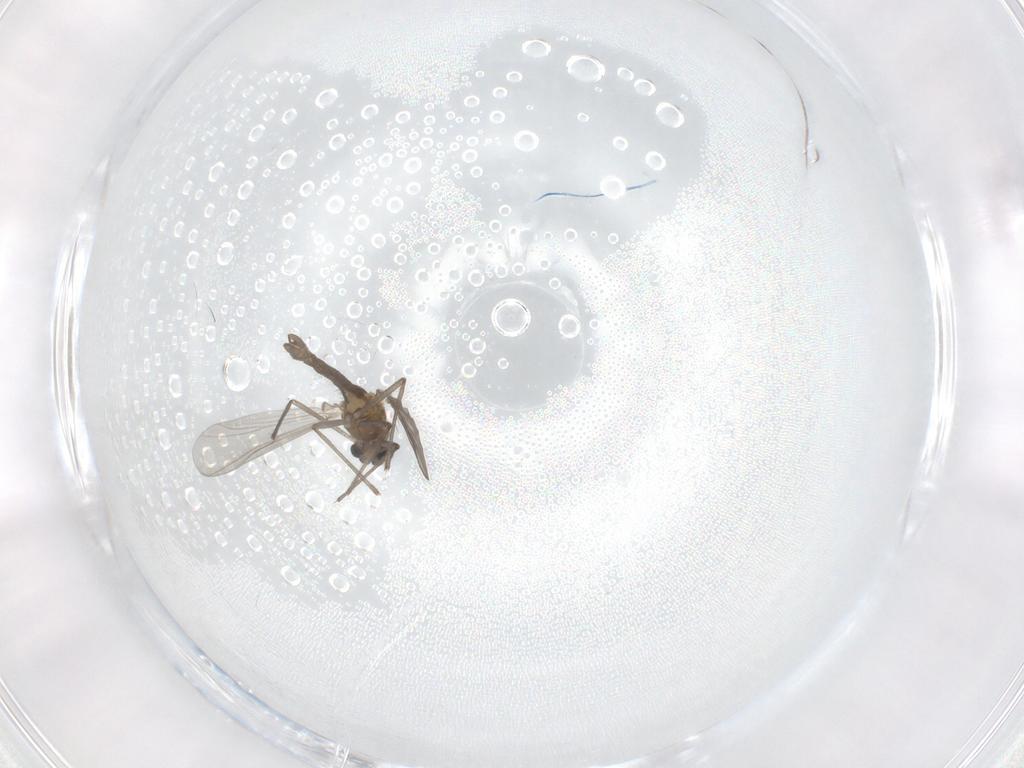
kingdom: Animalia
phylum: Arthropoda
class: Insecta
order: Diptera
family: Chironomidae
